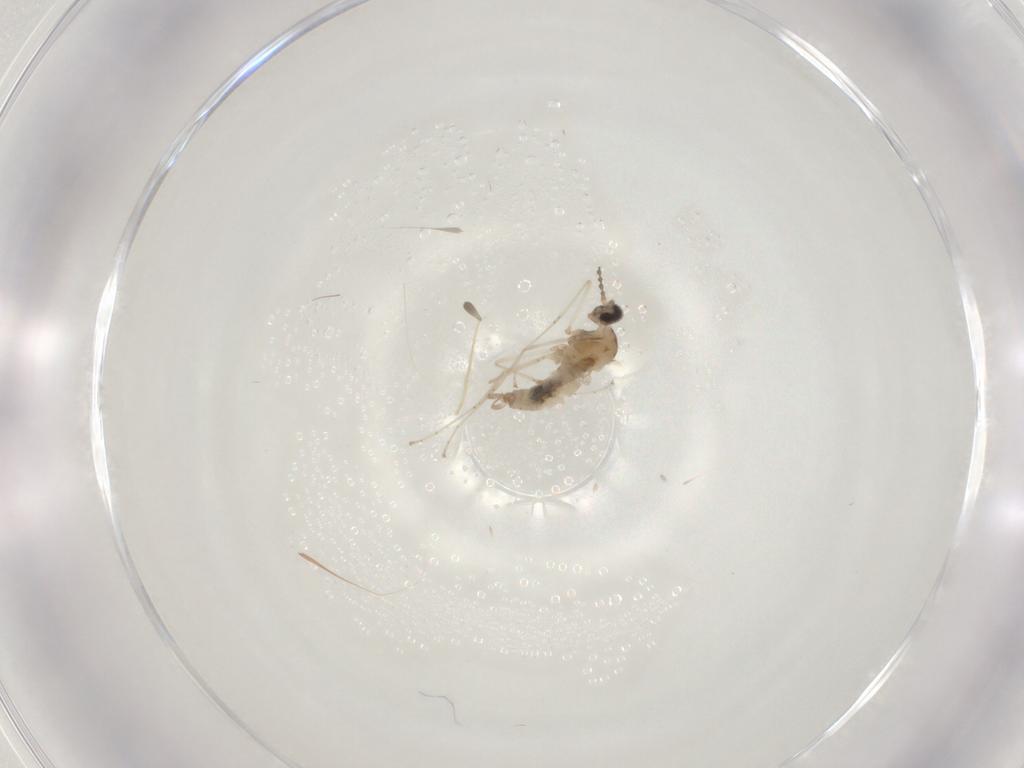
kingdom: Animalia
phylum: Arthropoda
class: Insecta
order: Diptera
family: Cecidomyiidae
